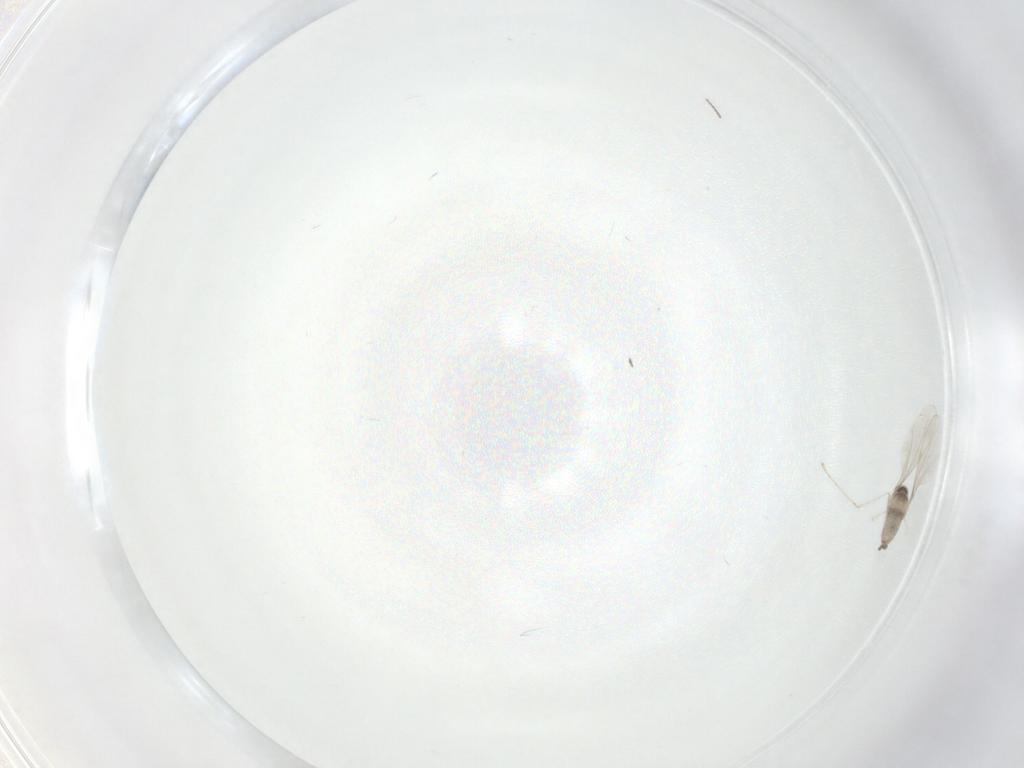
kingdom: Animalia
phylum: Arthropoda
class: Insecta
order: Diptera
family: Cecidomyiidae
